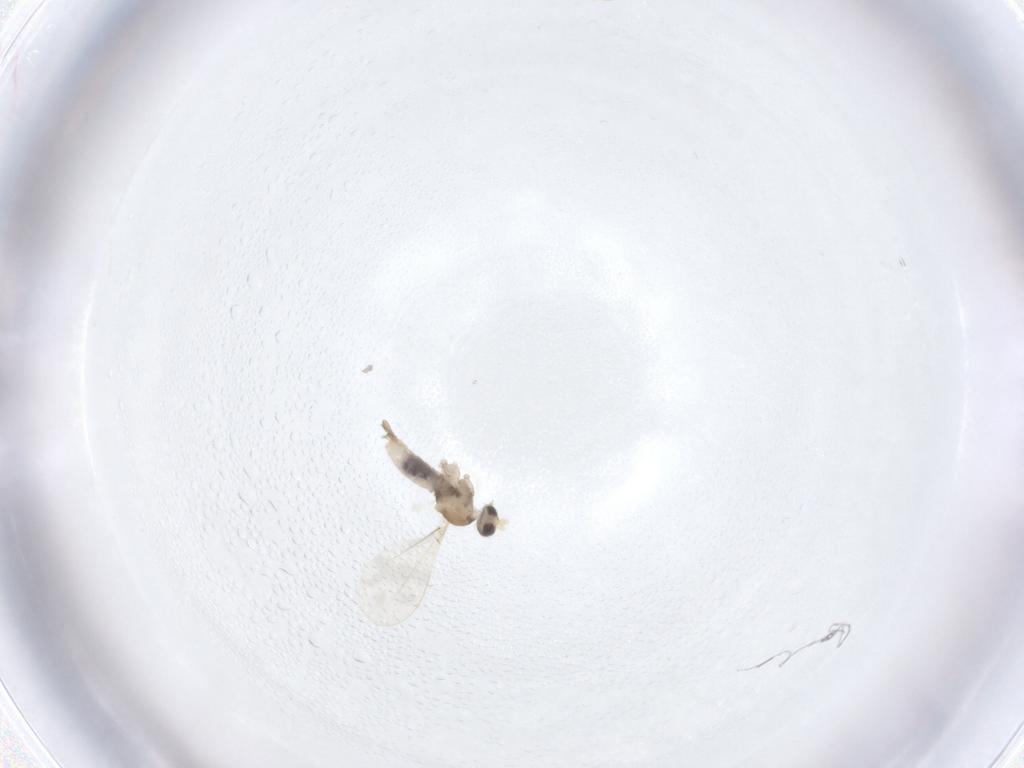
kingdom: Animalia
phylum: Arthropoda
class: Insecta
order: Diptera
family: Cecidomyiidae
